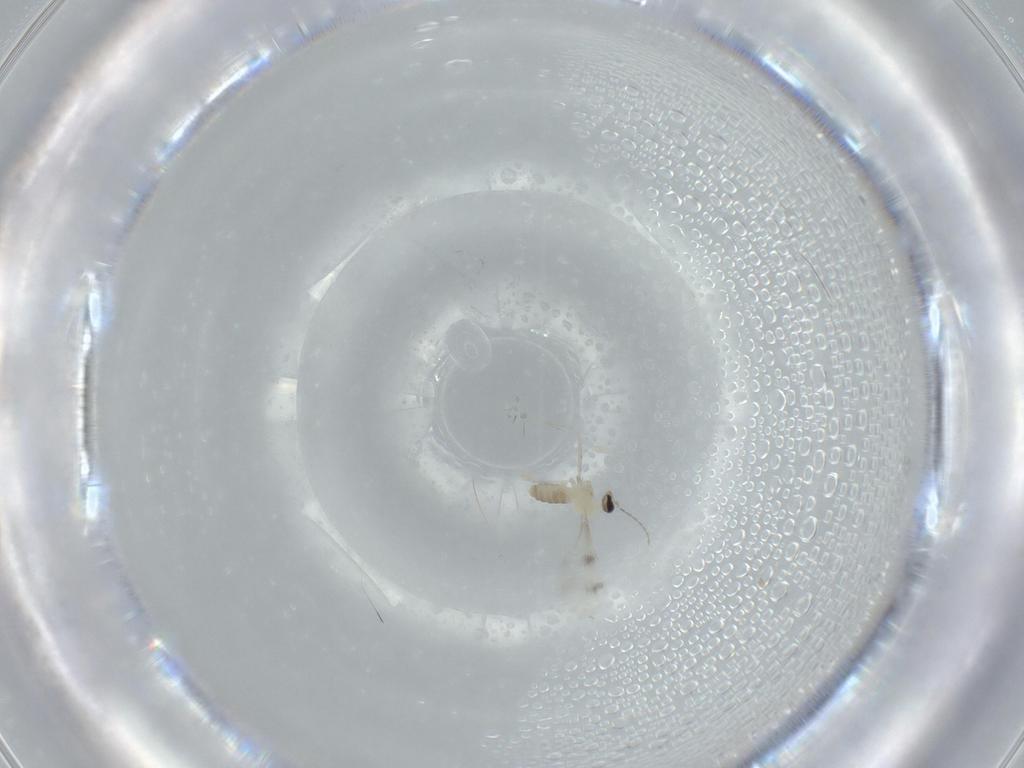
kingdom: Animalia
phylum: Arthropoda
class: Insecta
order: Diptera
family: Cecidomyiidae
